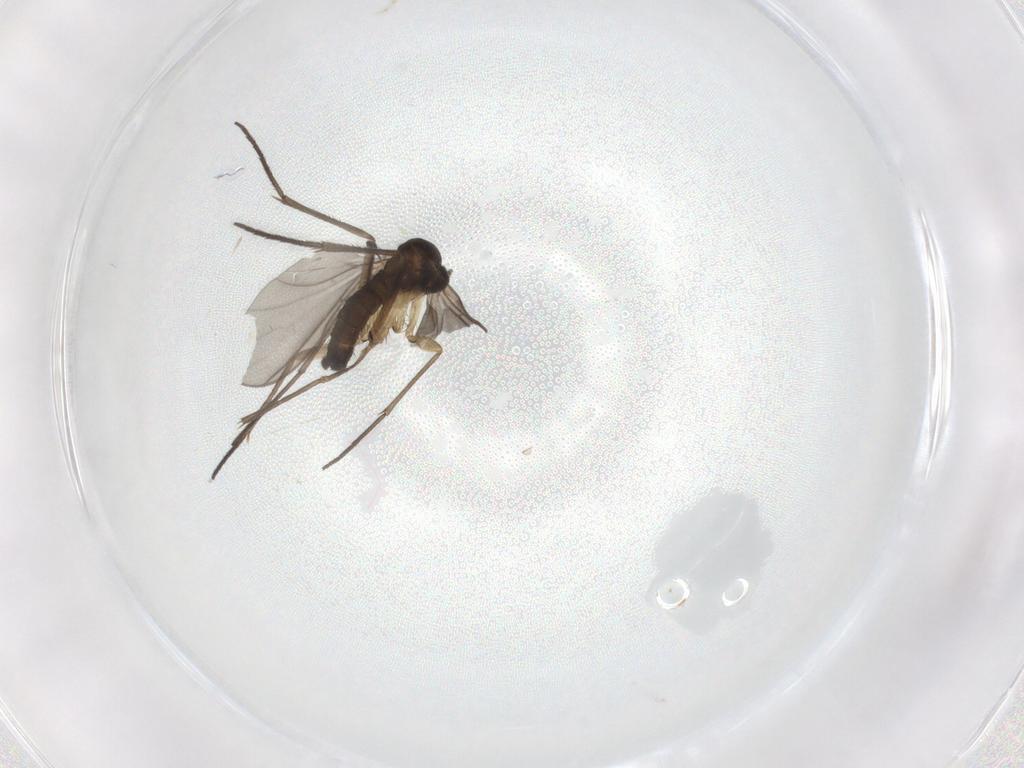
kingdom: Animalia
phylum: Arthropoda
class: Insecta
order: Diptera
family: Sciaridae
